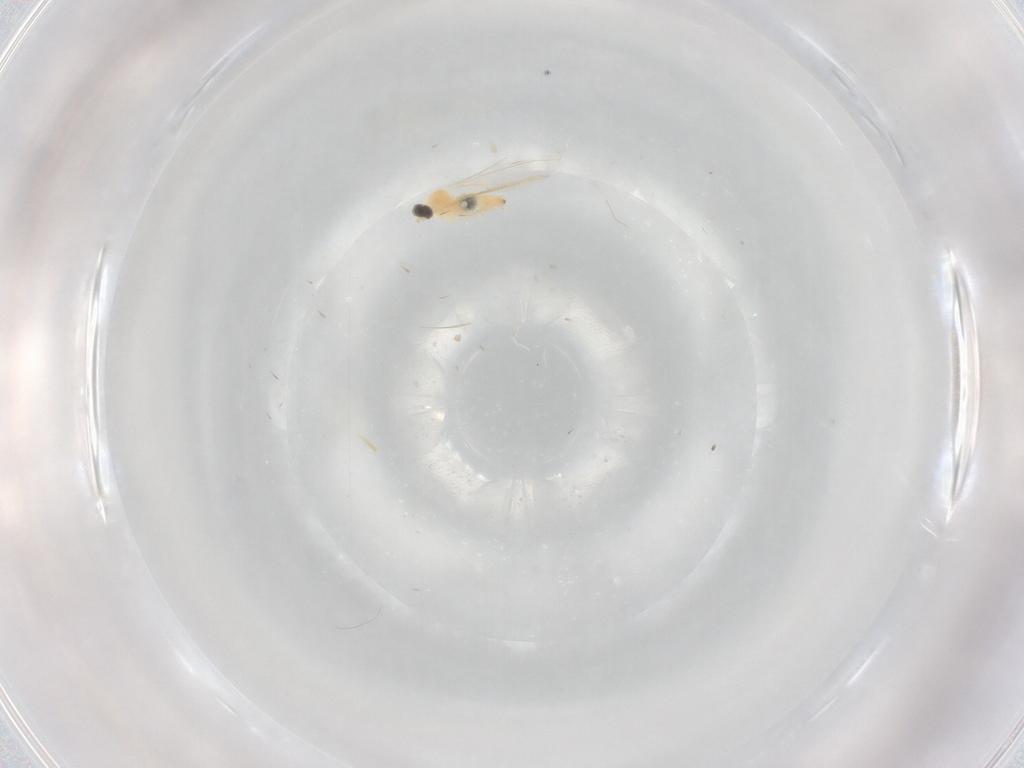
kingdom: Animalia
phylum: Arthropoda
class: Insecta
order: Diptera
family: Cecidomyiidae
